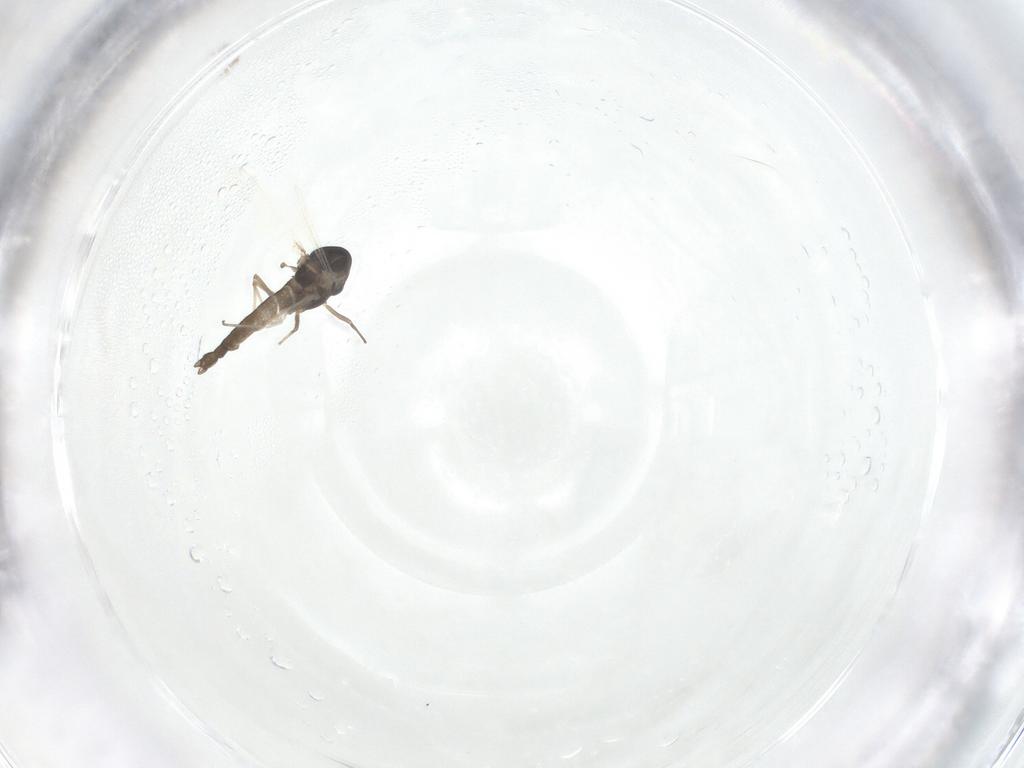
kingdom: Animalia
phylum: Arthropoda
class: Insecta
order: Diptera
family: Chironomidae
